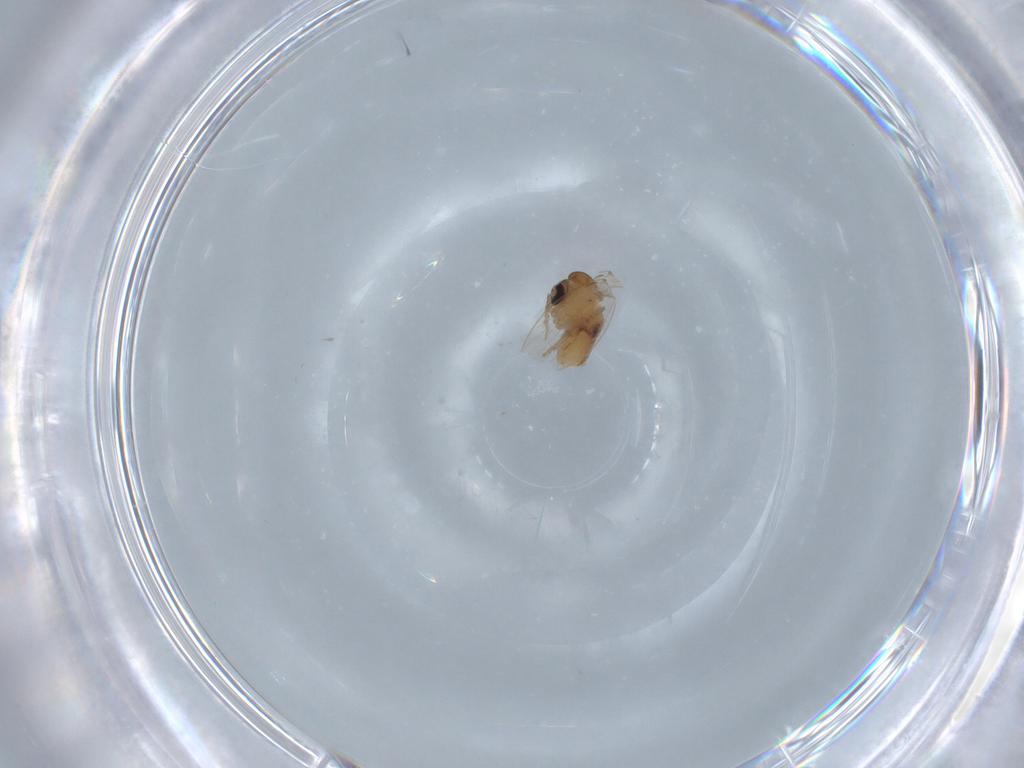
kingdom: Animalia
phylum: Arthropoda
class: Insecta
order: Diptera
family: Psychodidae
